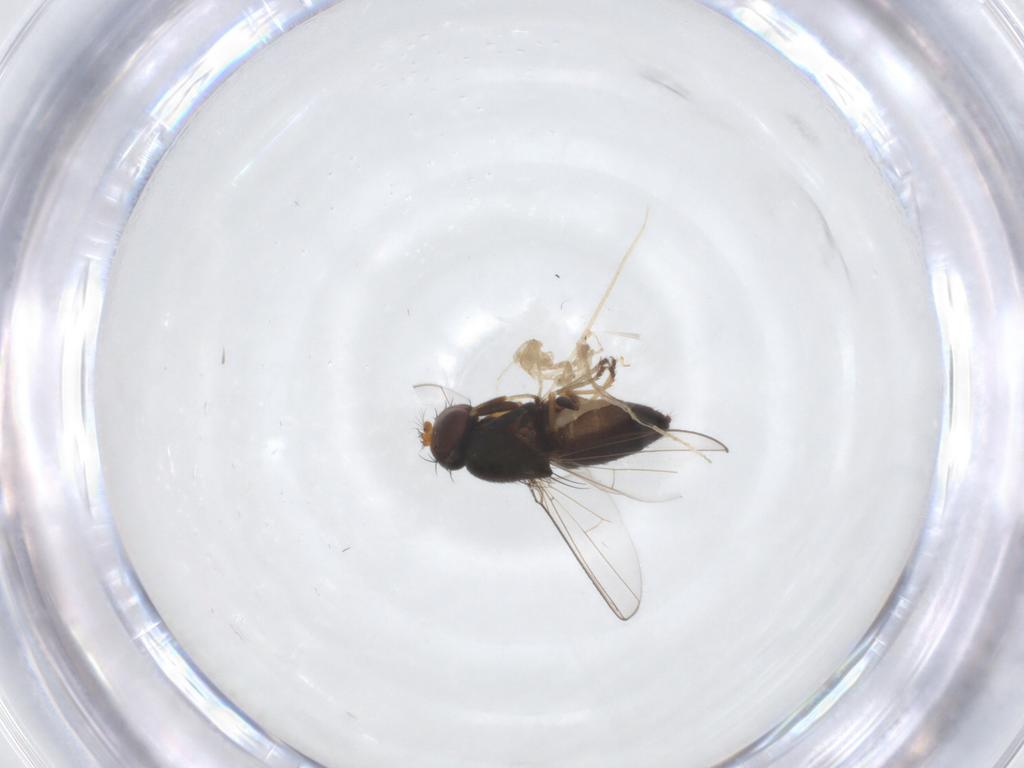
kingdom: Animalia
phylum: Arthropoda
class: Insecta
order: Diptera
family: Ephydridae
